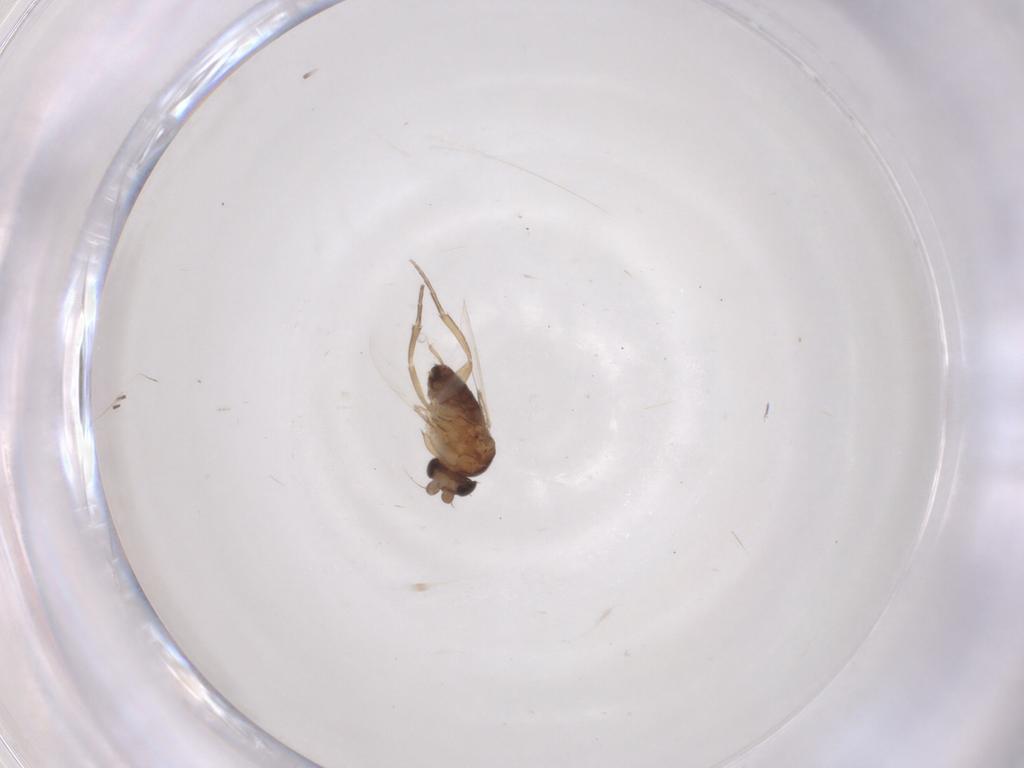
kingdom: Animalia
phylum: Arthropoda
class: Insecta
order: Diptera
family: Phoridae
